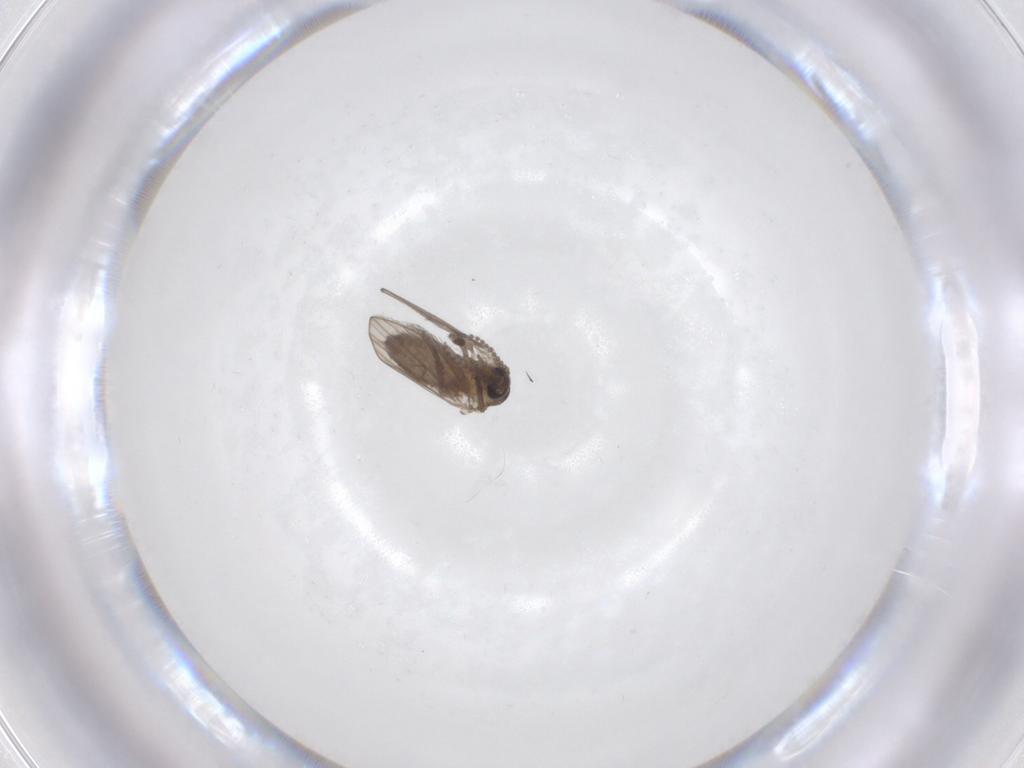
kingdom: Animalia
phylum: Arthropoda
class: Insecta
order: Diptera
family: Psychodidae
